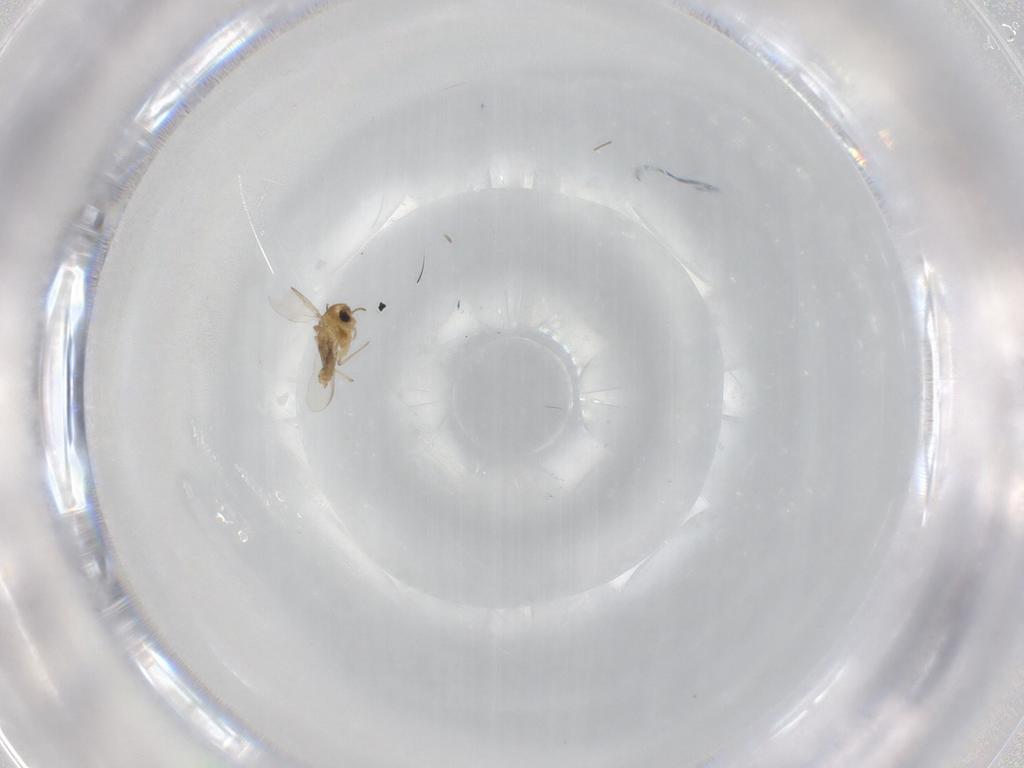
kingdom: Animalia
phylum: Arthropoda
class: Insecta
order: Diptera
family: Chironomidae
